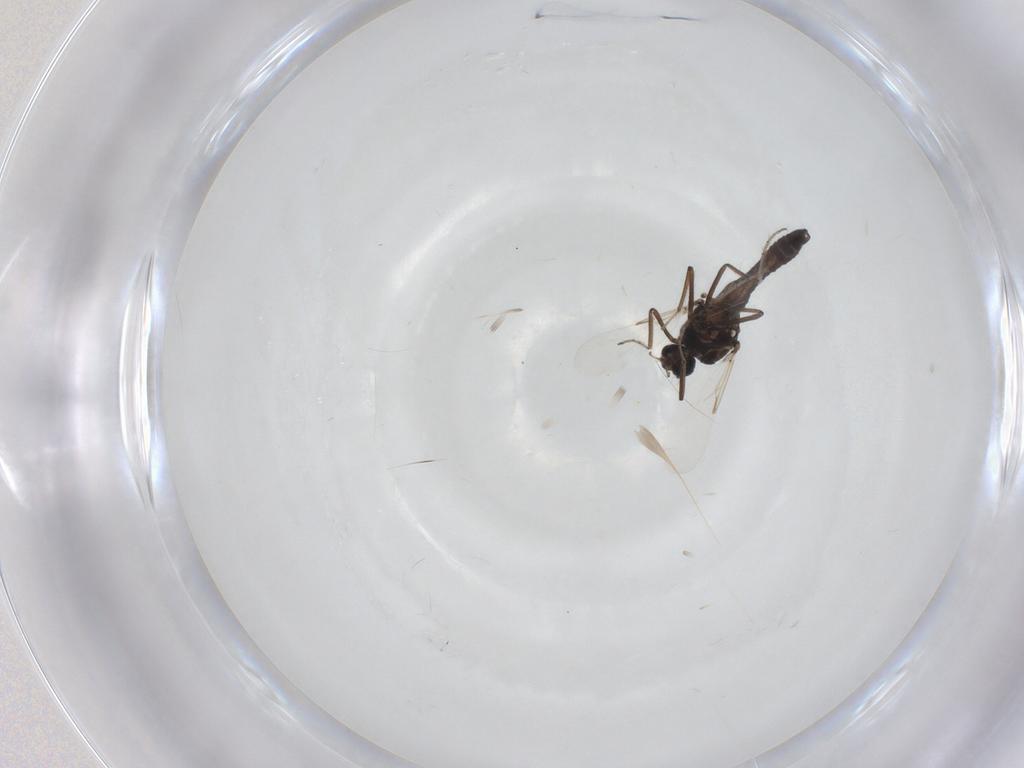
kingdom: Animalia
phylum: Arthropoda
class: Insecta
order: Diptera
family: Ceratopogonidae
